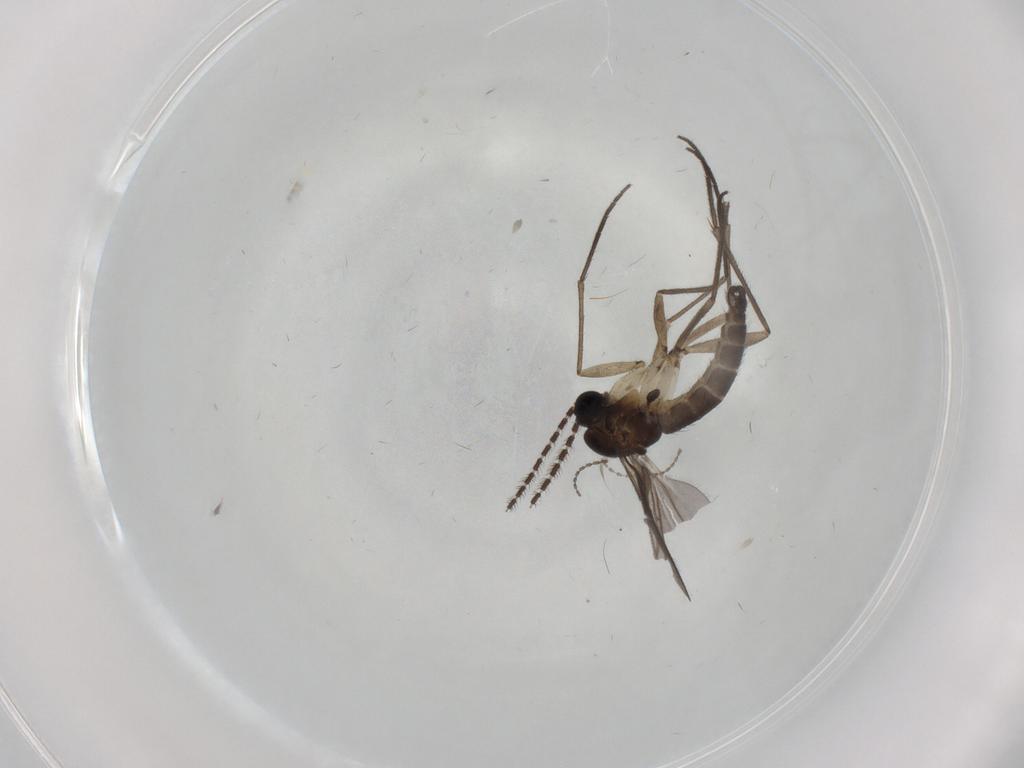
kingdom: Animalia
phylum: Arthropoda
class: Insecta
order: Diptera
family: Sciaridae
